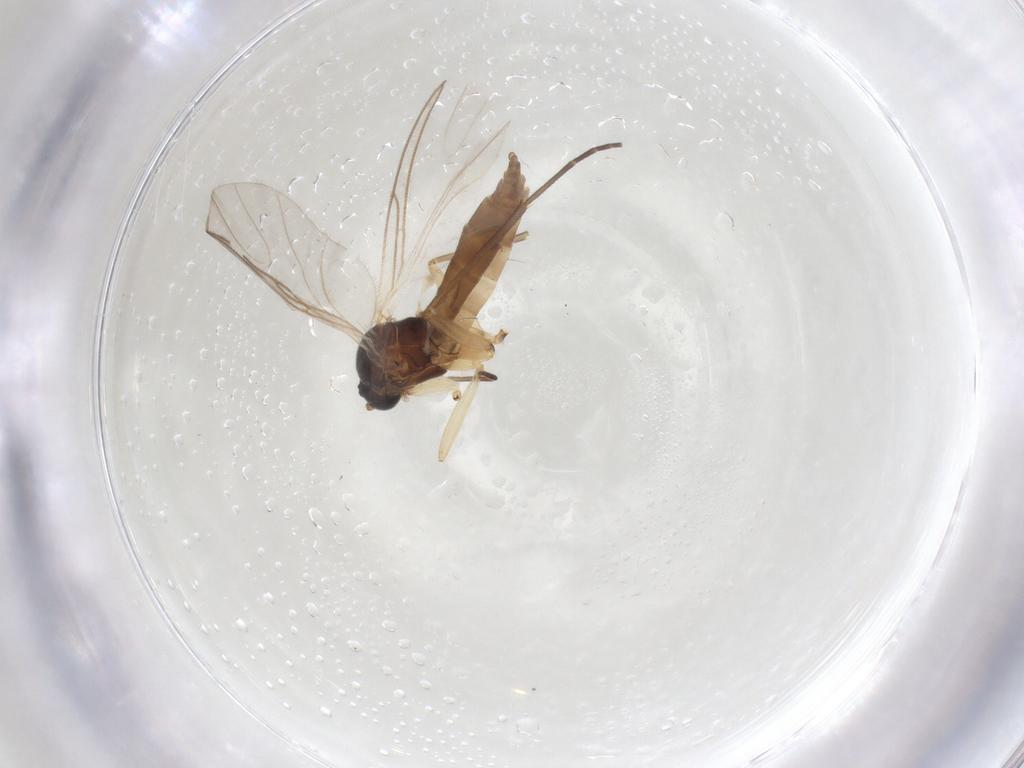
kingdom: Animalia
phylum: Arthropoda
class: Insecta
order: Diptera
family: Sciaridae
